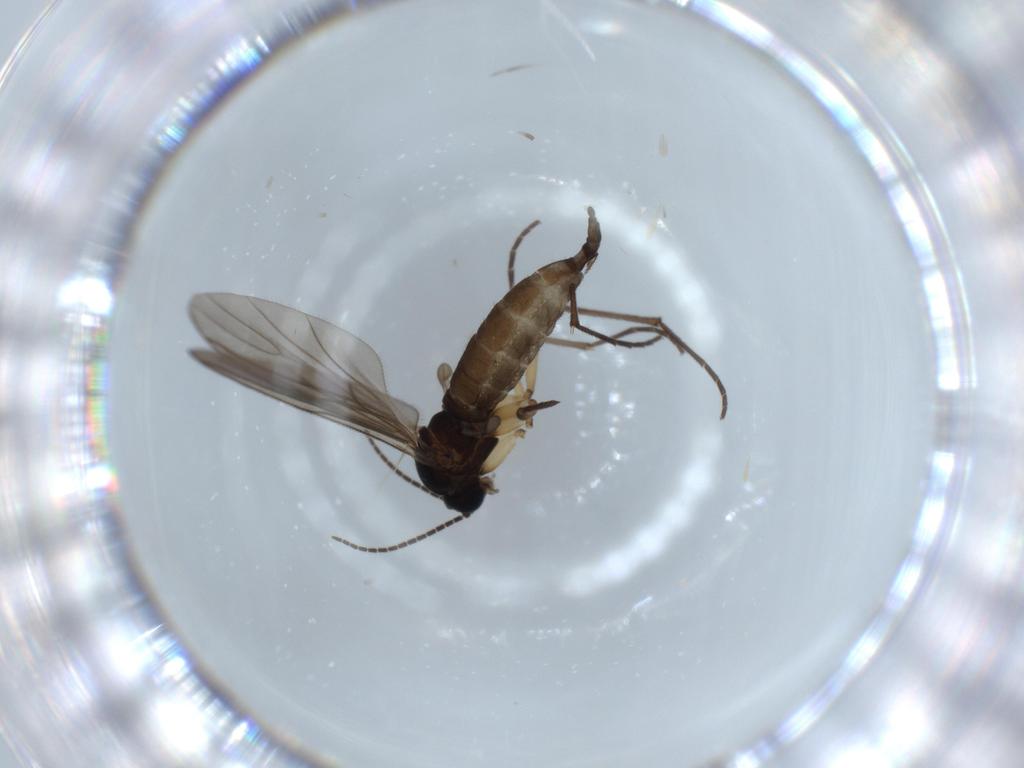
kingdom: Animalia
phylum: Arthropoda
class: Insecta
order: Diptera
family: Sciaridae
